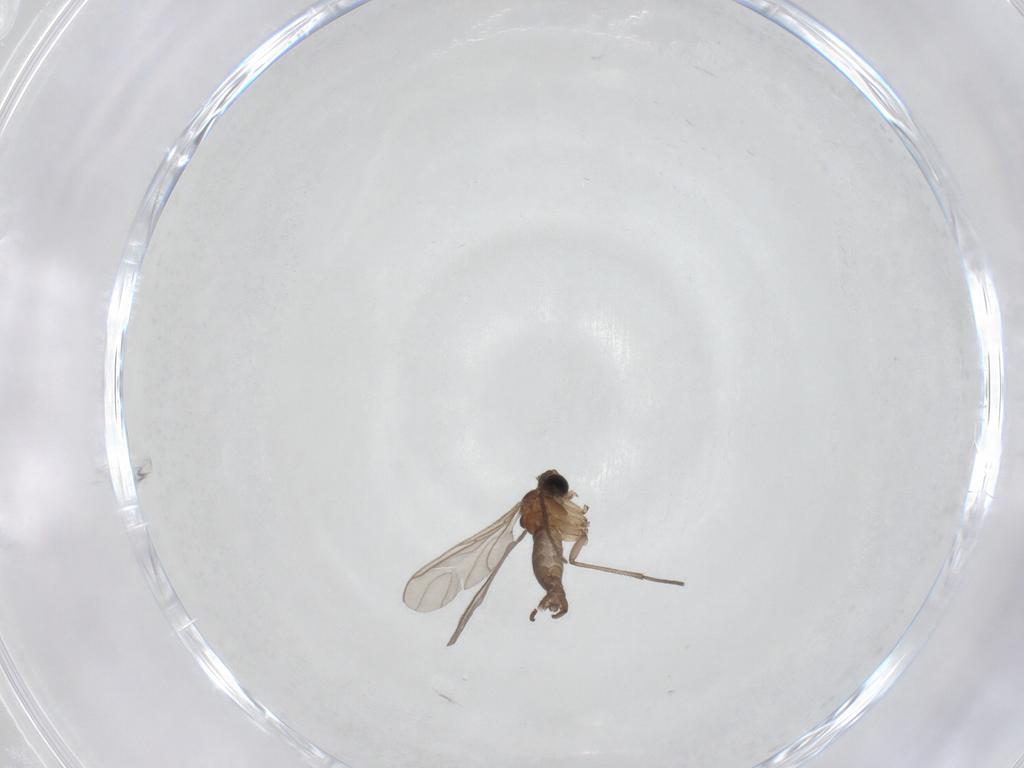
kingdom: Animalia
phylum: Arthropoda
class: Insecta
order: Diptera
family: Sciaridae
